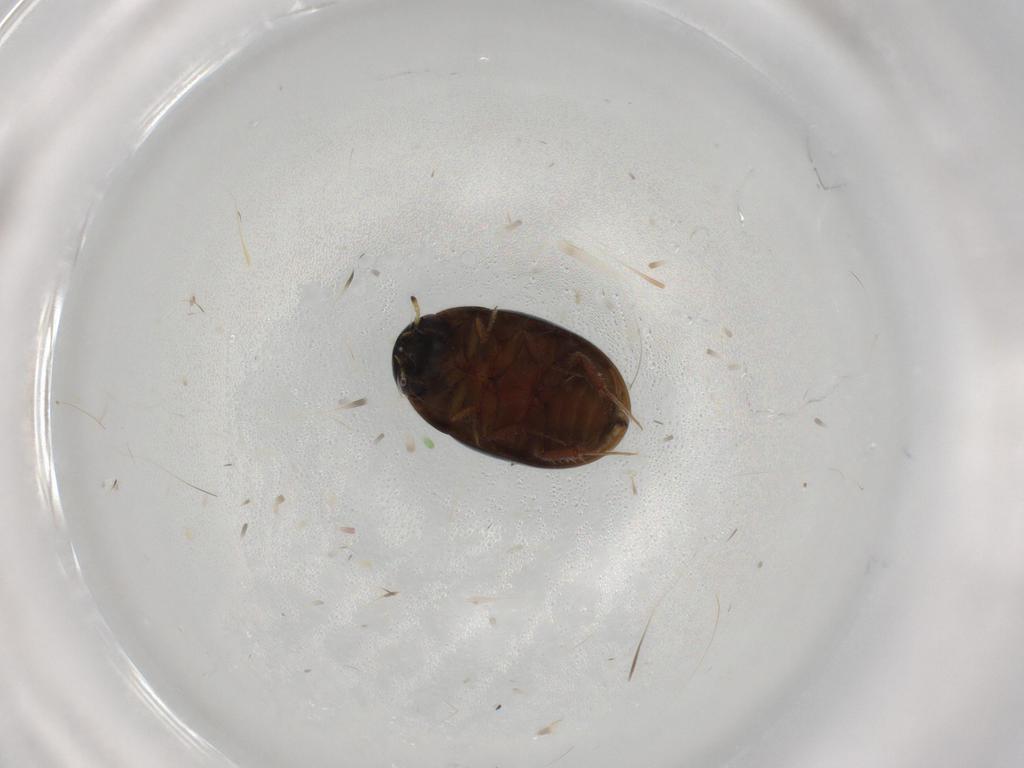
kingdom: Animalia
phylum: Arthropoda
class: Insecta
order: Coleoptera
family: Hydrophilidae
